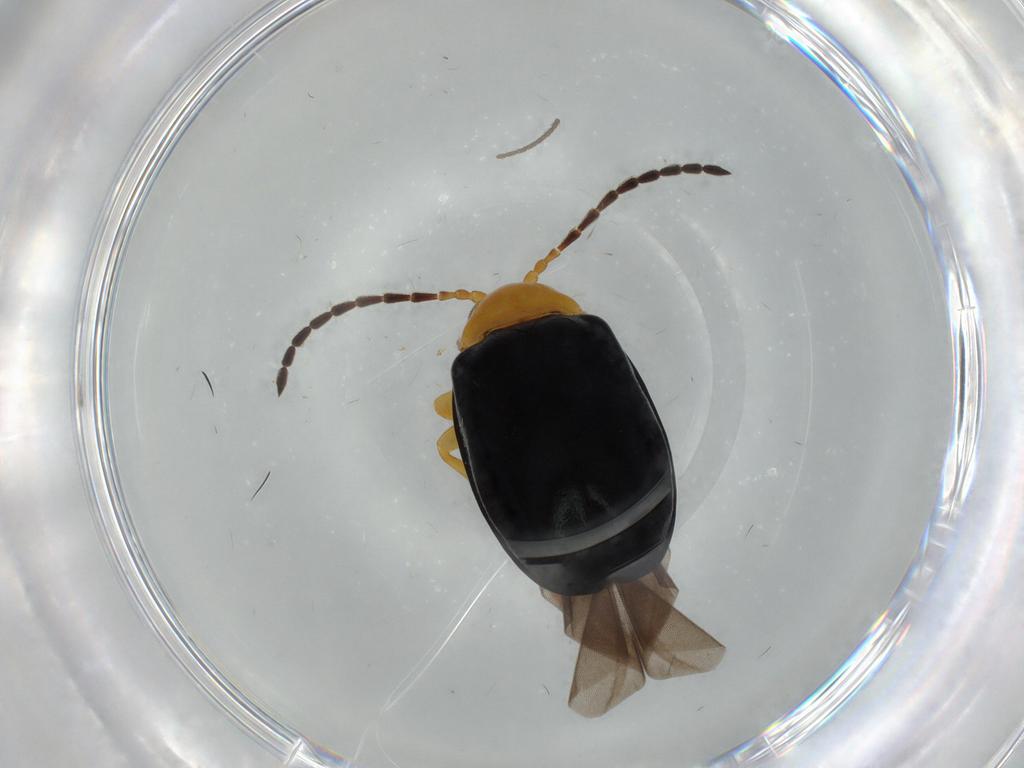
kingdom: Animalia
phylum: Arthropoda
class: Insecta
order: Coleoptera
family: Chrysomelidae
